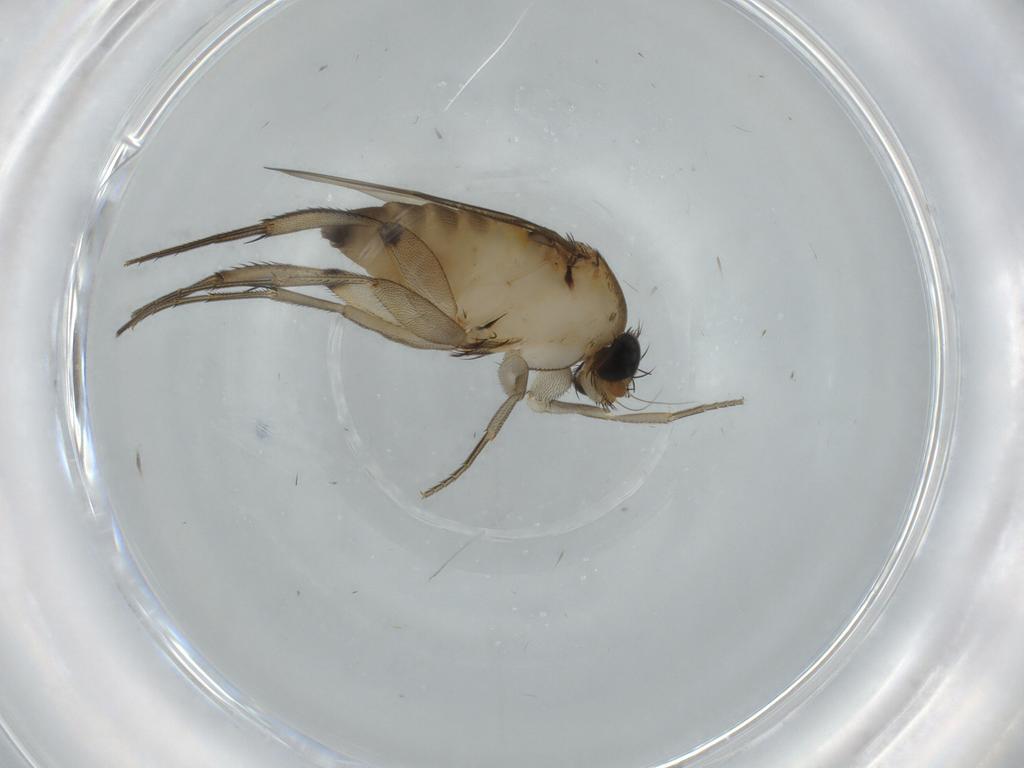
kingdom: Animalia
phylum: Arthropoda
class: Insecta
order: Diptera
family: Phoridae
